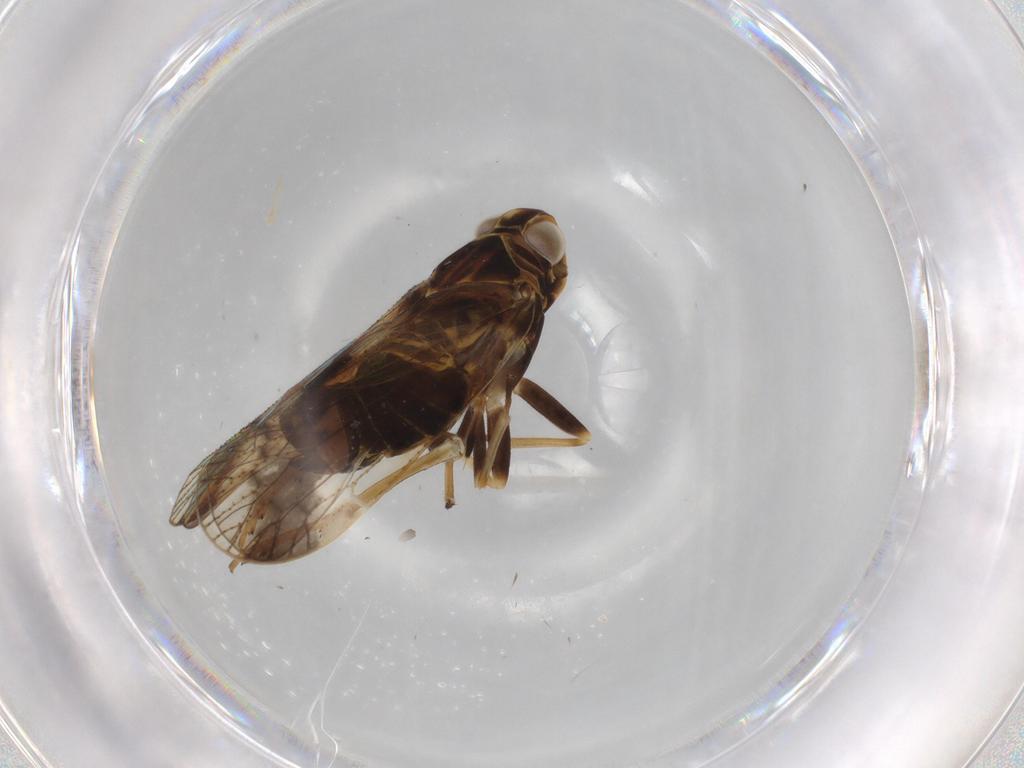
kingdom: Animalia
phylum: Arthropoda
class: Insecta
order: Hemiptera
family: Cixiidae
